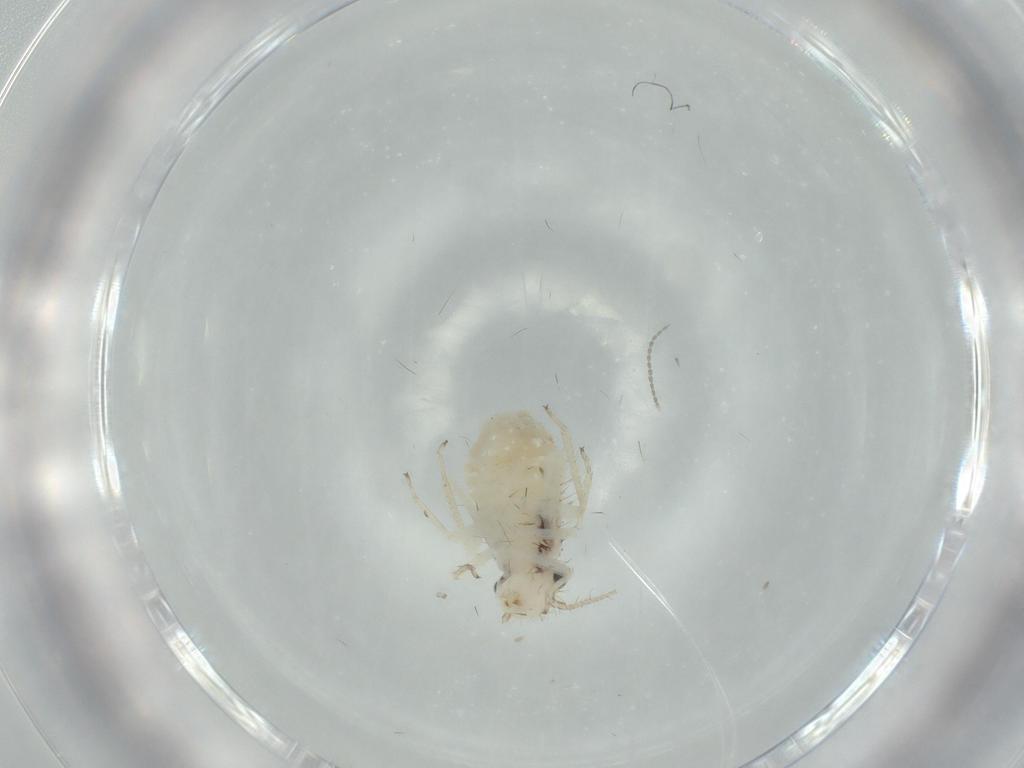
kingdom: Animalia
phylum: Arthropoda
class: Insecta
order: Psocodea
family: Pseudocaeciliidae
